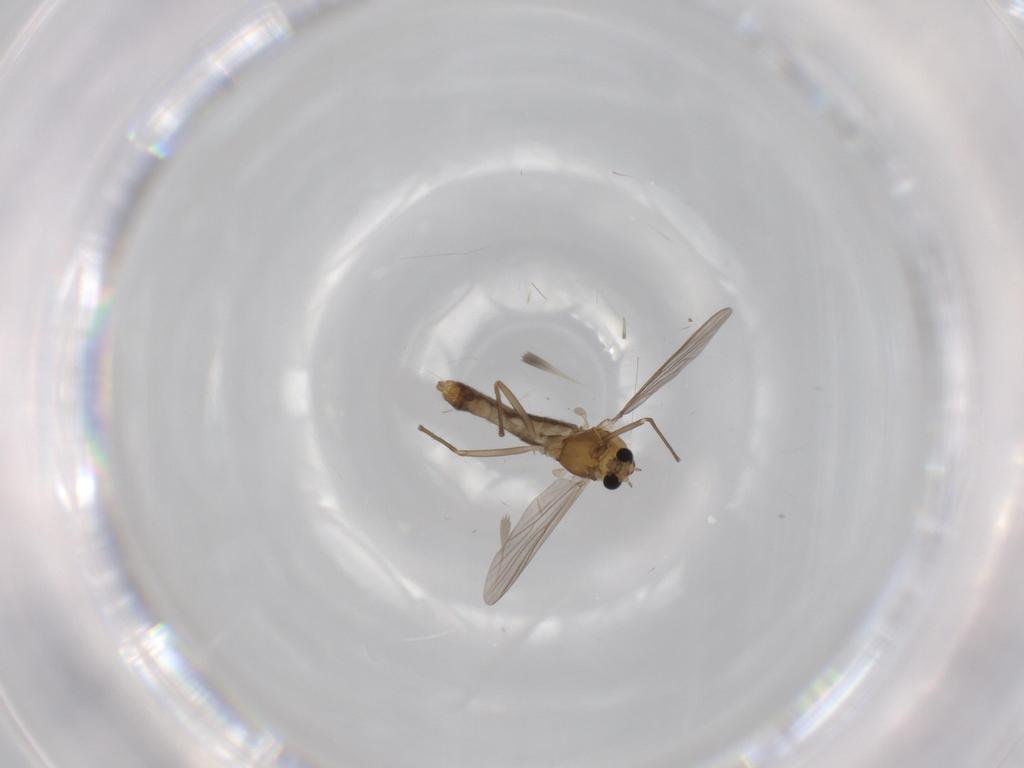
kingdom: Animalia
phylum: Arthropoda
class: Insecta
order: Diptera
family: Chironomidae
